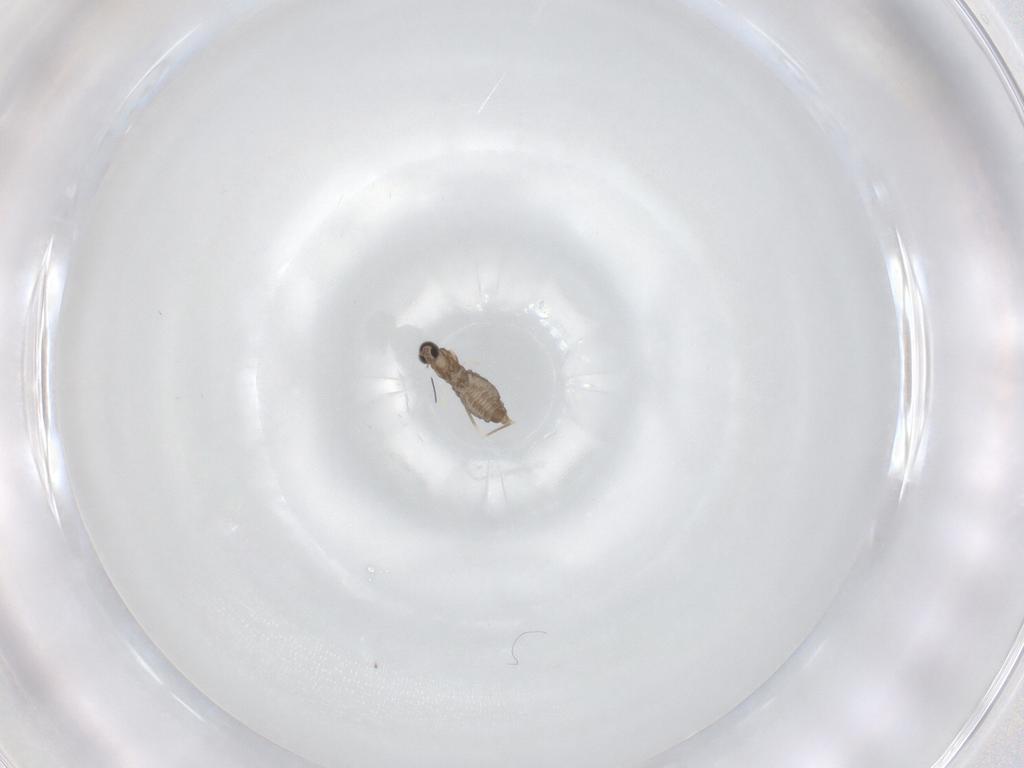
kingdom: Animalia
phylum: Arthropoda
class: Insecta
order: Diptera
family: Cecidomyiidae
